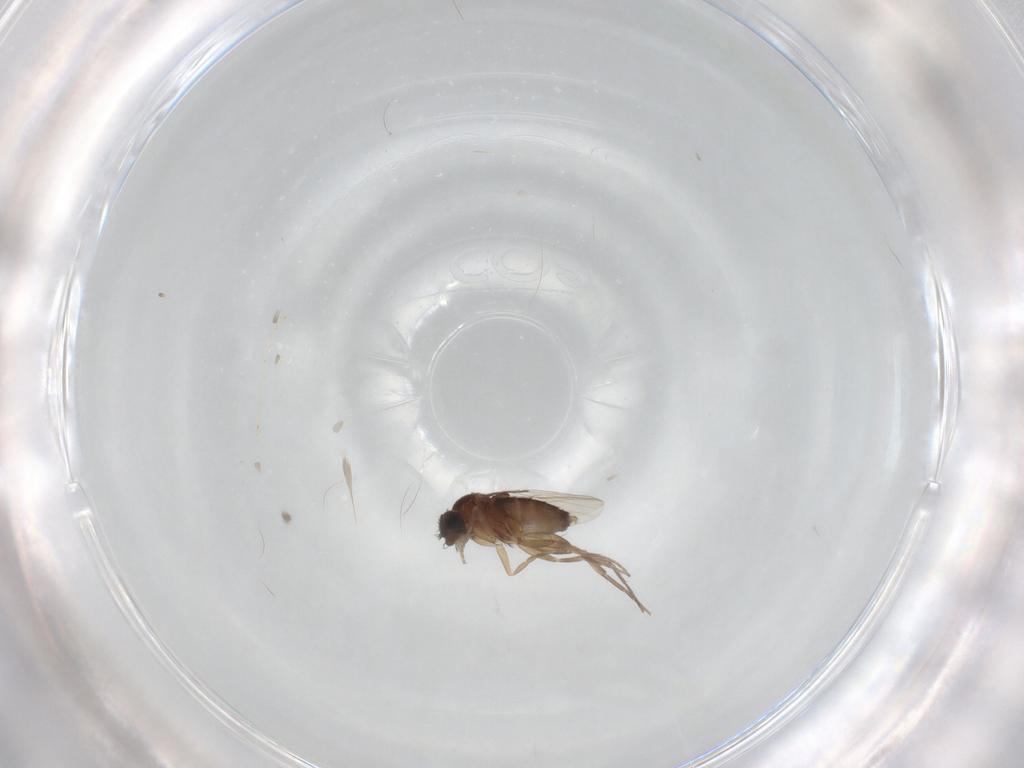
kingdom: Animalia
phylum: Arthropoda
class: Insecta
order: Diptera
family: Cecidomyiidae
